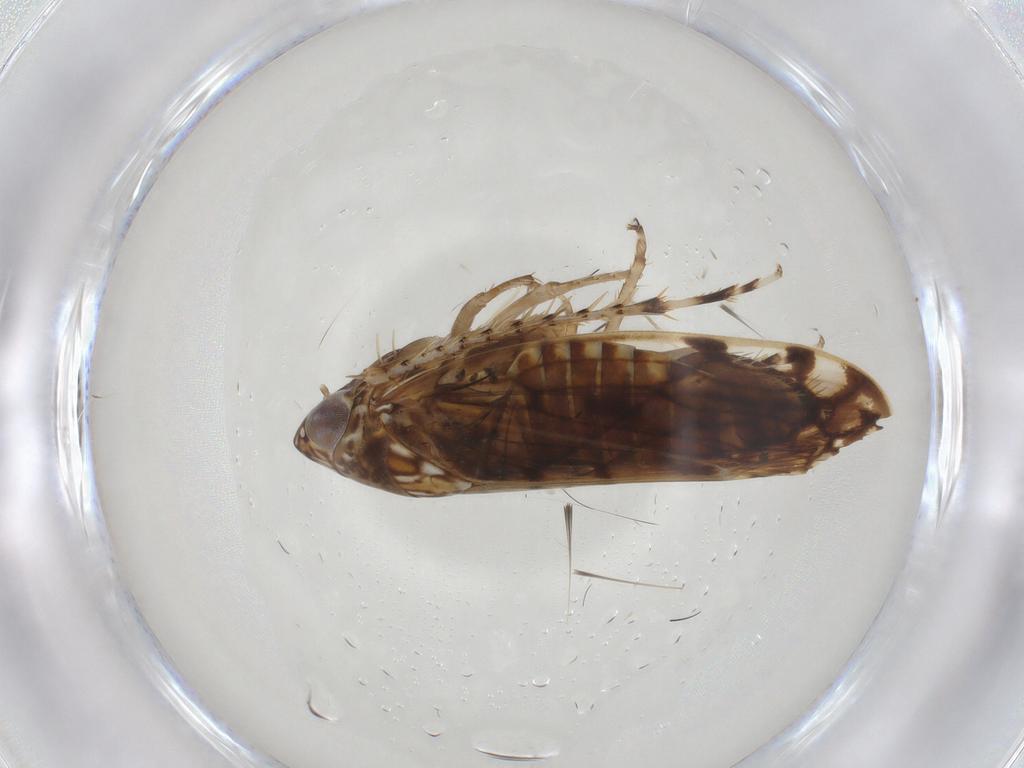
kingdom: Animalia
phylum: Arthropoda
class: Insecta
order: Hemiptera
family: Cicadellidae
